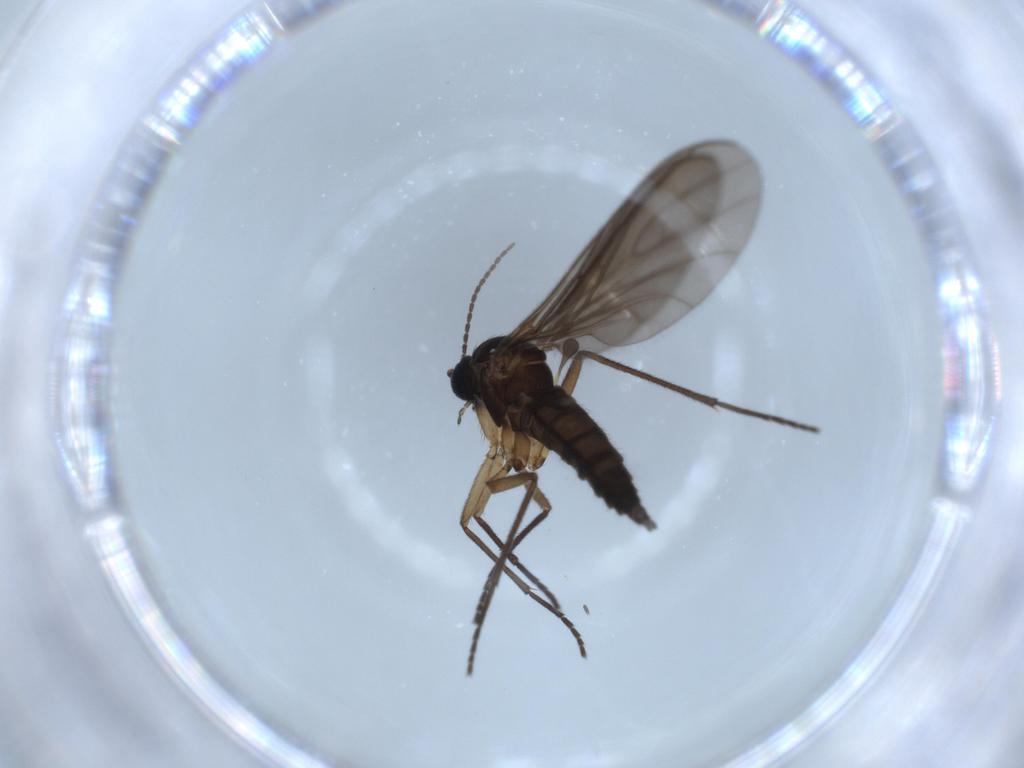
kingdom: Animalia
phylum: Arthropoda
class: Insecta
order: Diptera
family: Sciaridae
